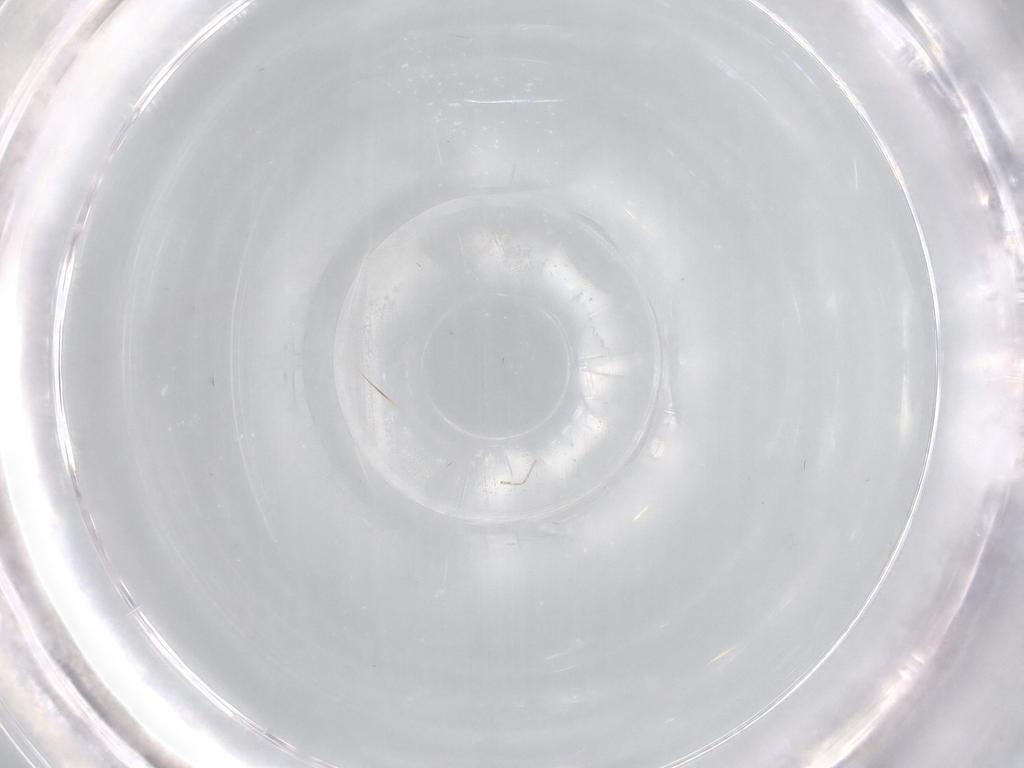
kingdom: Animalia
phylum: Arthropoda
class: Insecta
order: Diptera
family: Cecidomyiidae
